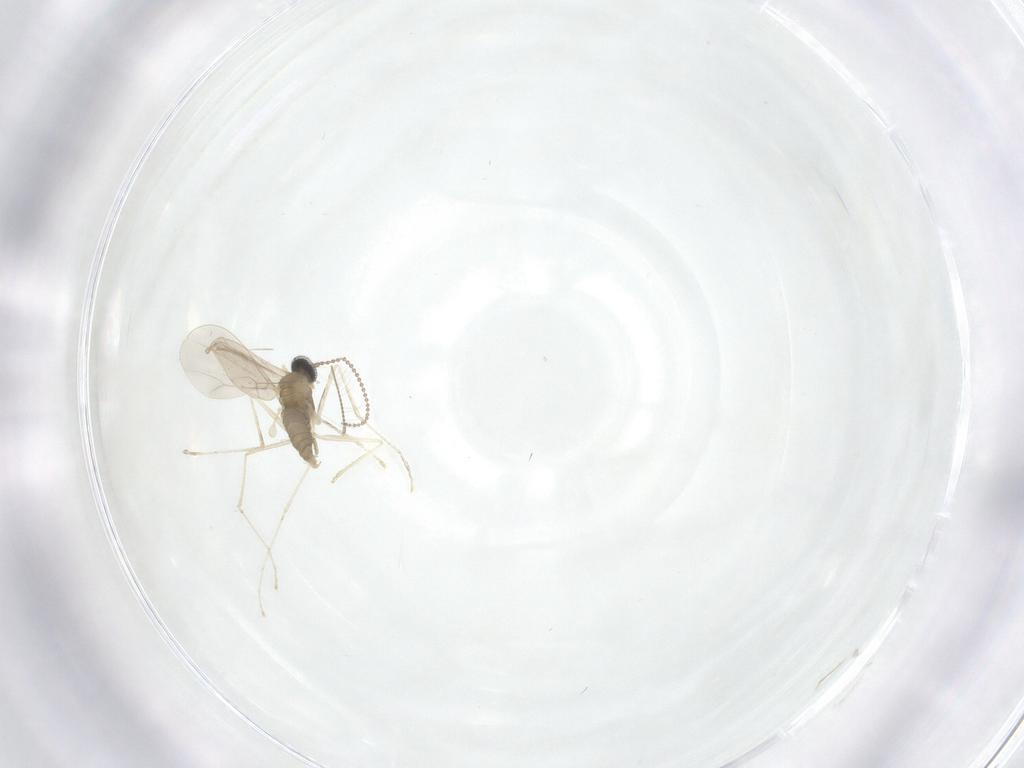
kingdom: Animalia
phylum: Arthropoda
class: Insecta
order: Diptera
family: Cecidomyiidae
